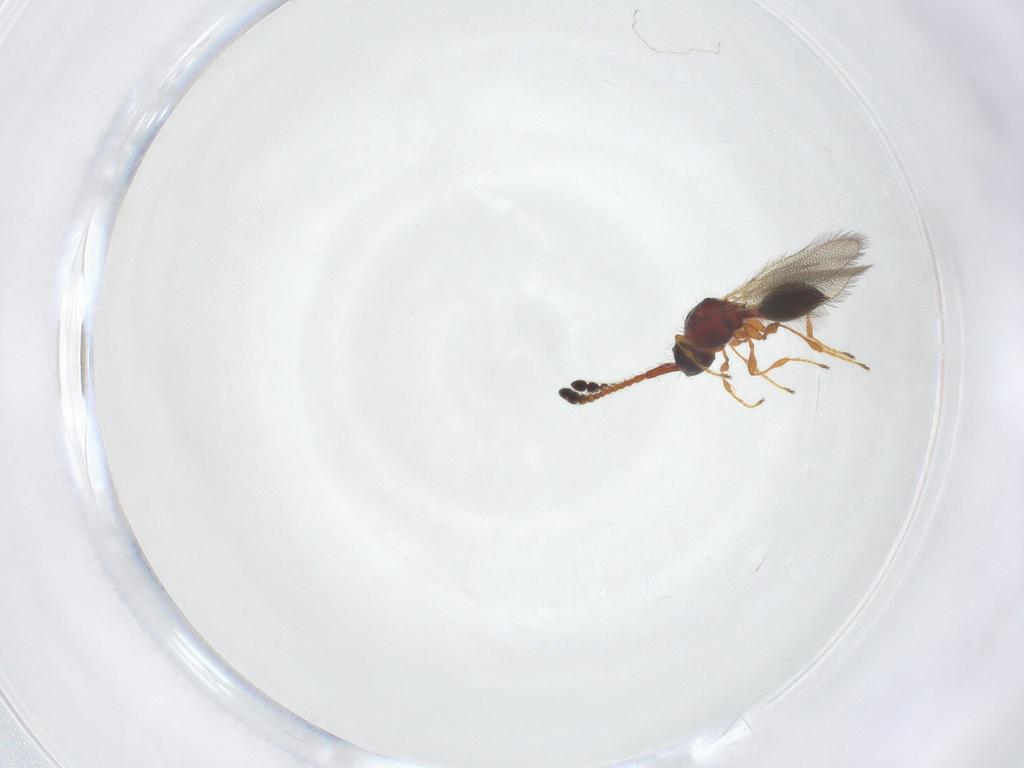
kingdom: Animalia
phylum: Arthropoda
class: Insecta
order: Hymenoptera
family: Diapriidae
